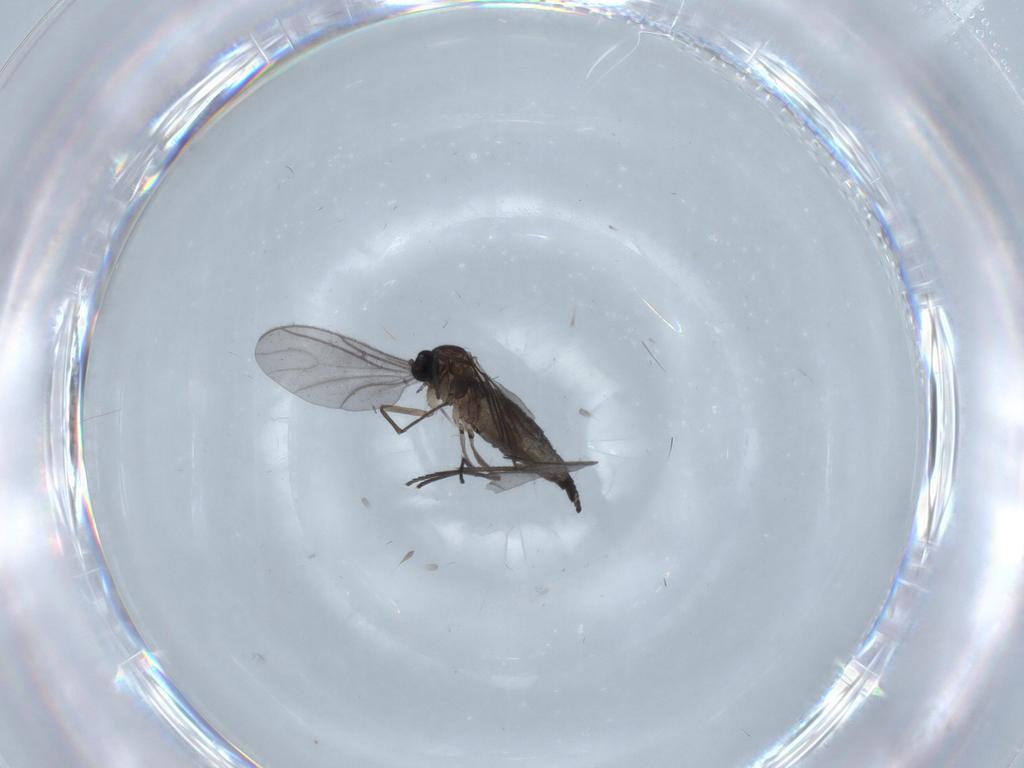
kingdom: Animalia
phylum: Arthropoda
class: Insecta
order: Diptera
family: Sciaridae
